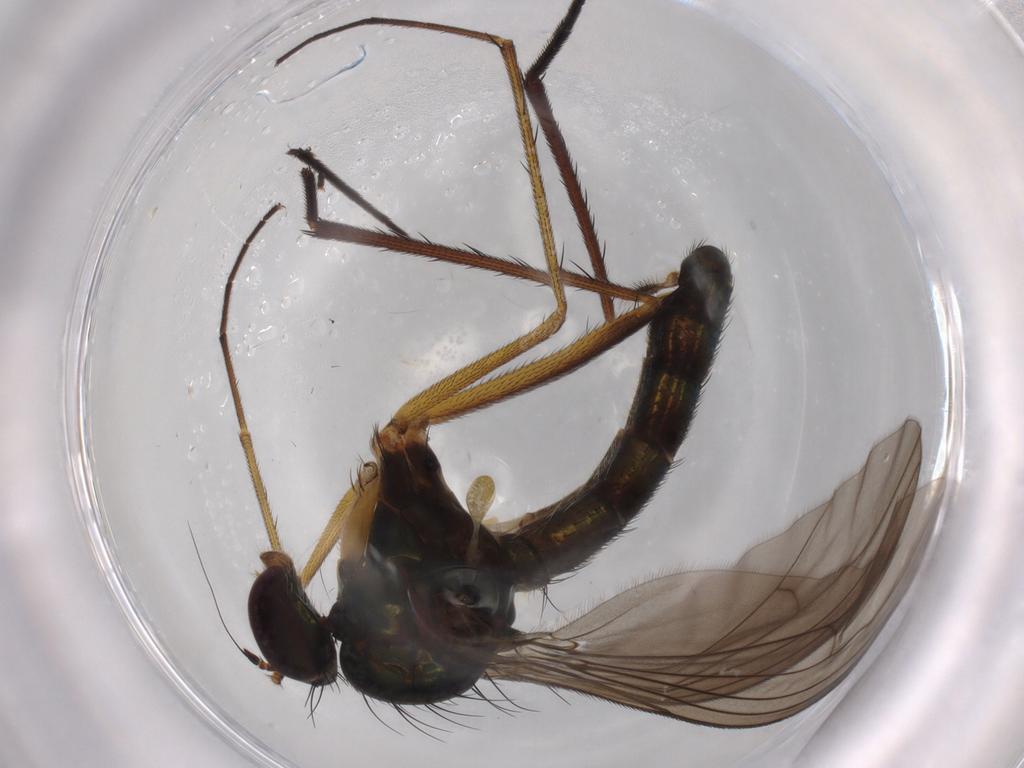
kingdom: Animalia
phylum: Arthropoda
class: Insecta
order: Diptera
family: Dolichopodidae
